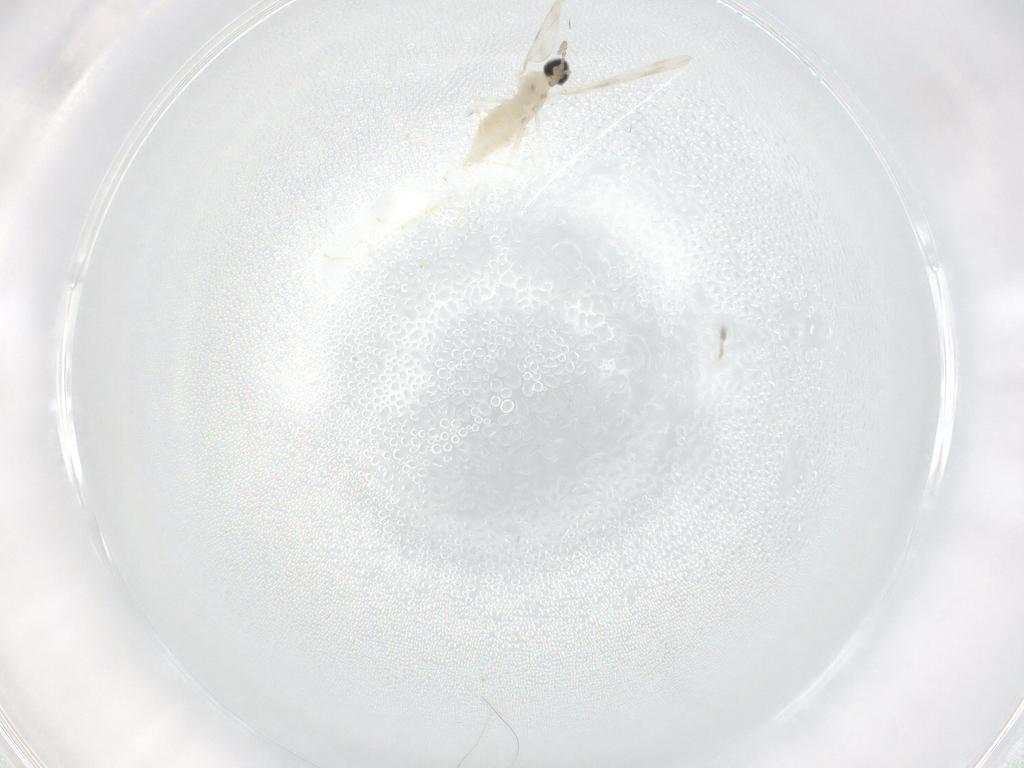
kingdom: Animalia
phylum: Arthropoda
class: Insecta
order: Diptera
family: Cecidomyiidae
